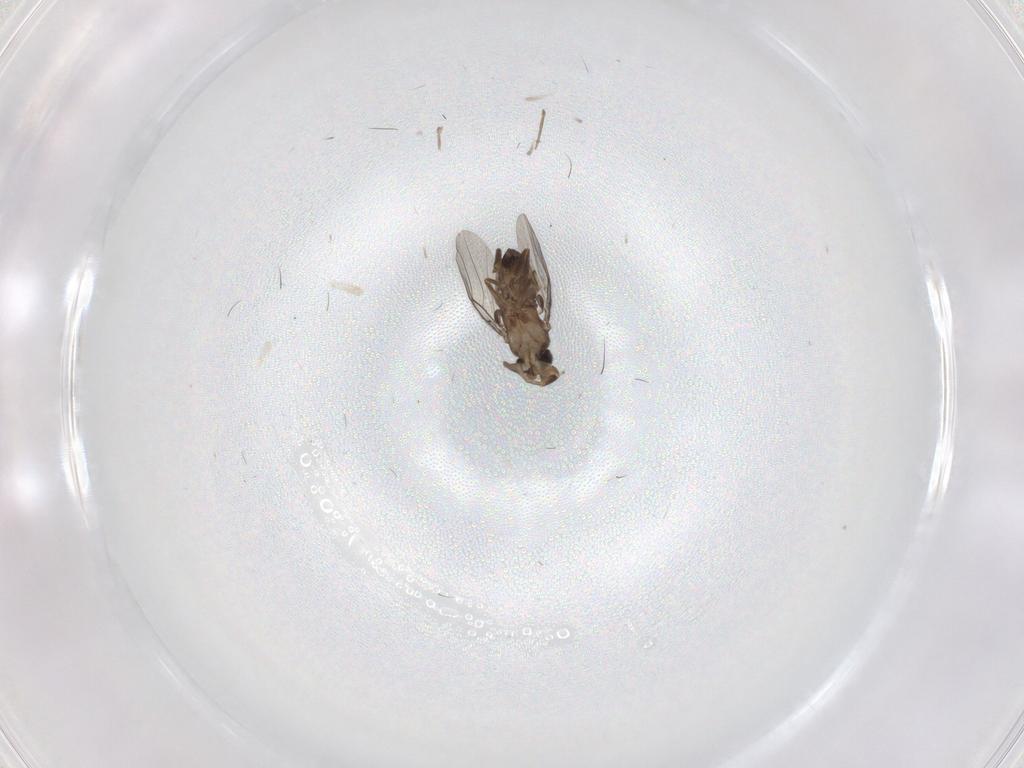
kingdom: Animalia
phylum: Arthropoda
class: Insecta
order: Diptera
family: Phoridae
